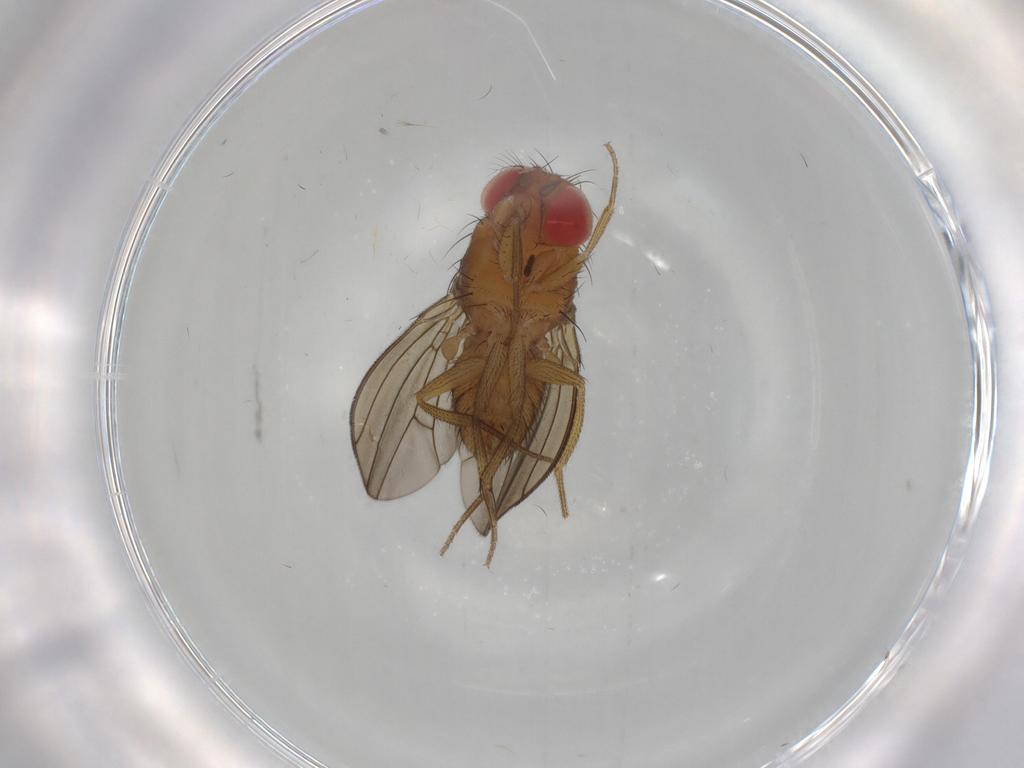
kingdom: Animalia
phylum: Arthropoda
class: Insecta
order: Diptera
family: Drosophilidae
